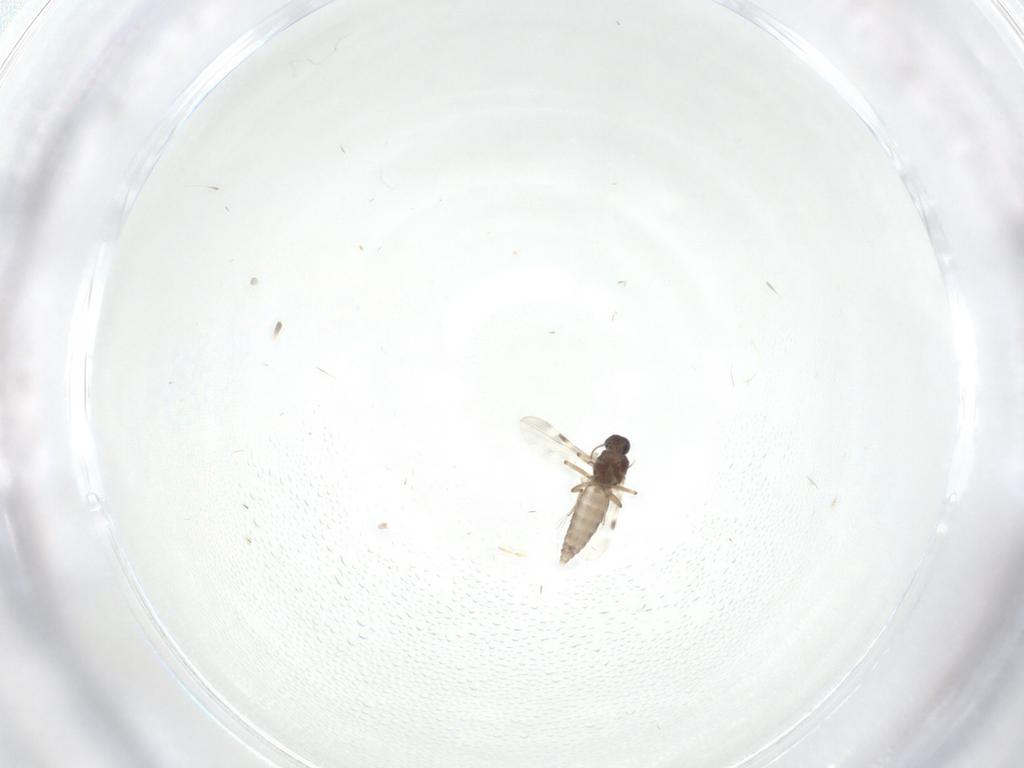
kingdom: Animalia
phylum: Arthropoda
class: Insecta
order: Diptera
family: Mycetophilidae
